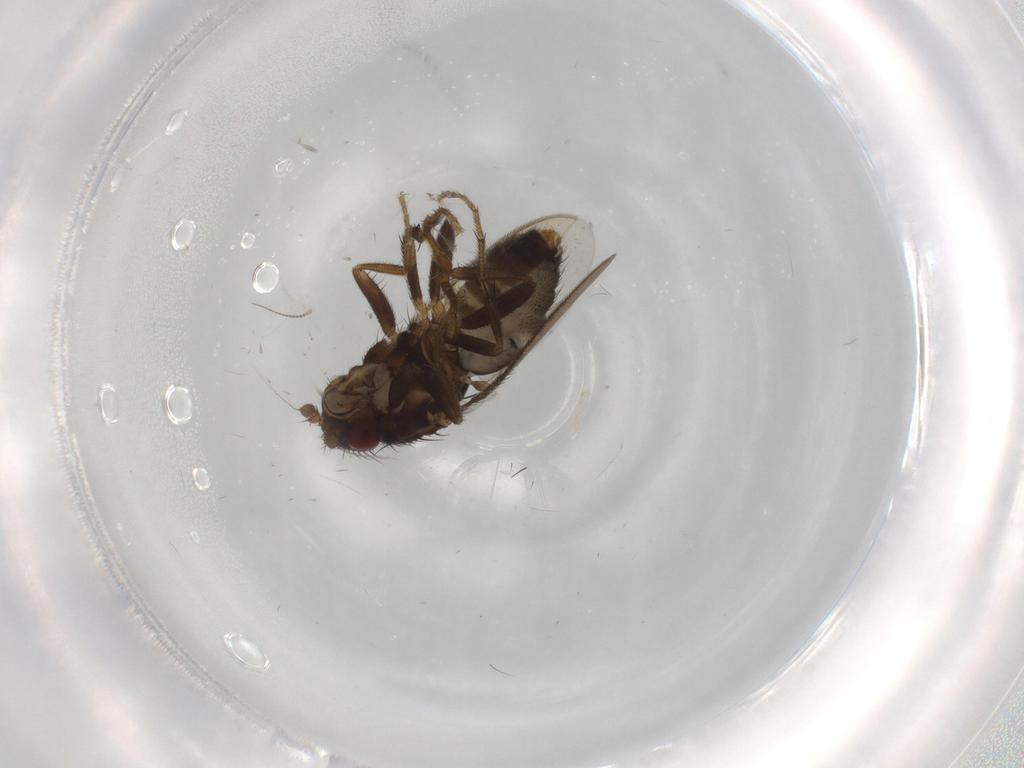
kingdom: Animalia
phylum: Arthropoda
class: Insecta
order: Diptera
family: Sphaeroceridae
